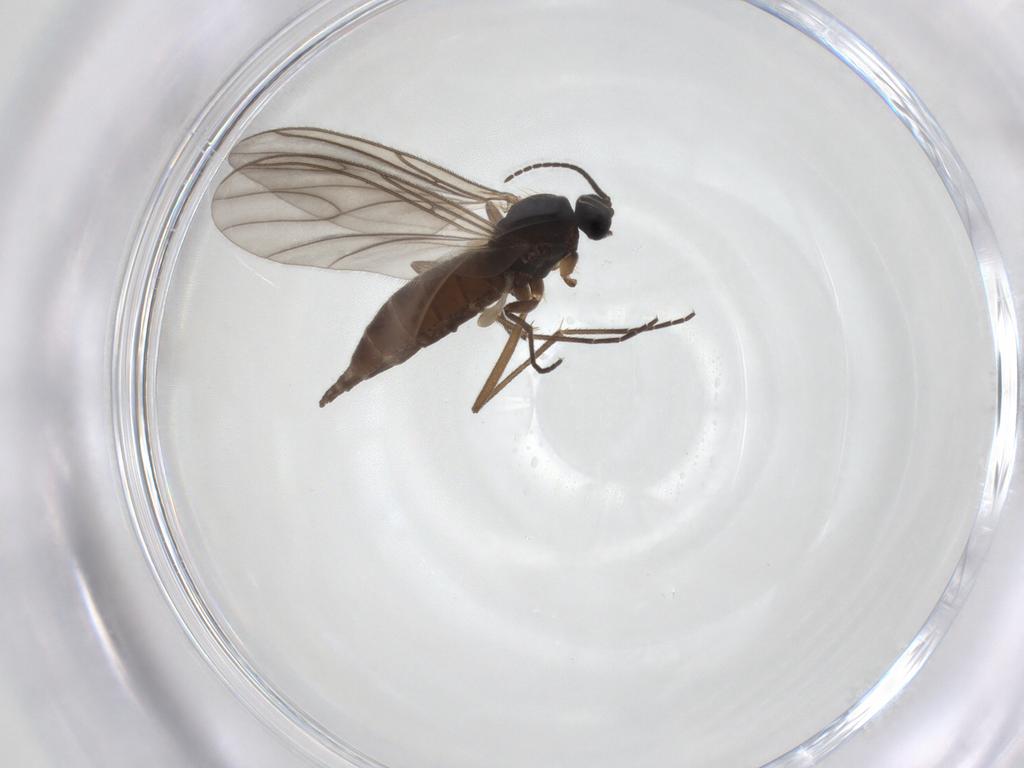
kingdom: Animalia
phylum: Arthropoda
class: Insecta
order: Diptera
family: Sciaridae
